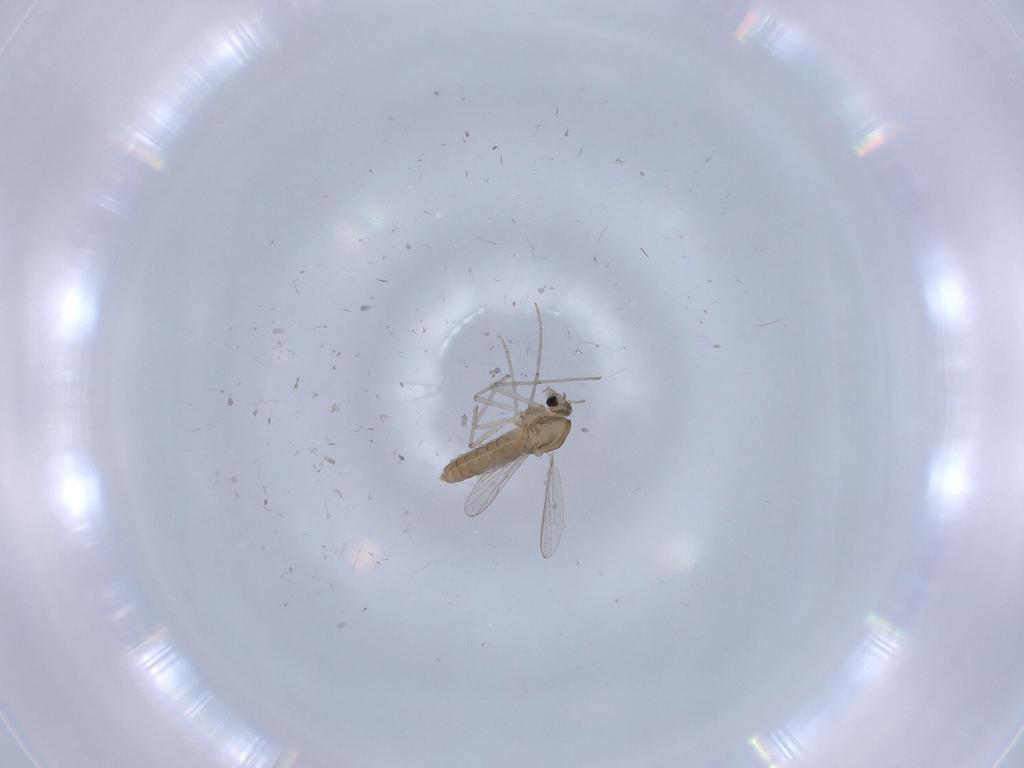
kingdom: Animalia
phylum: Arthropoda
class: Insecta
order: Diptera
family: Chironomidae
